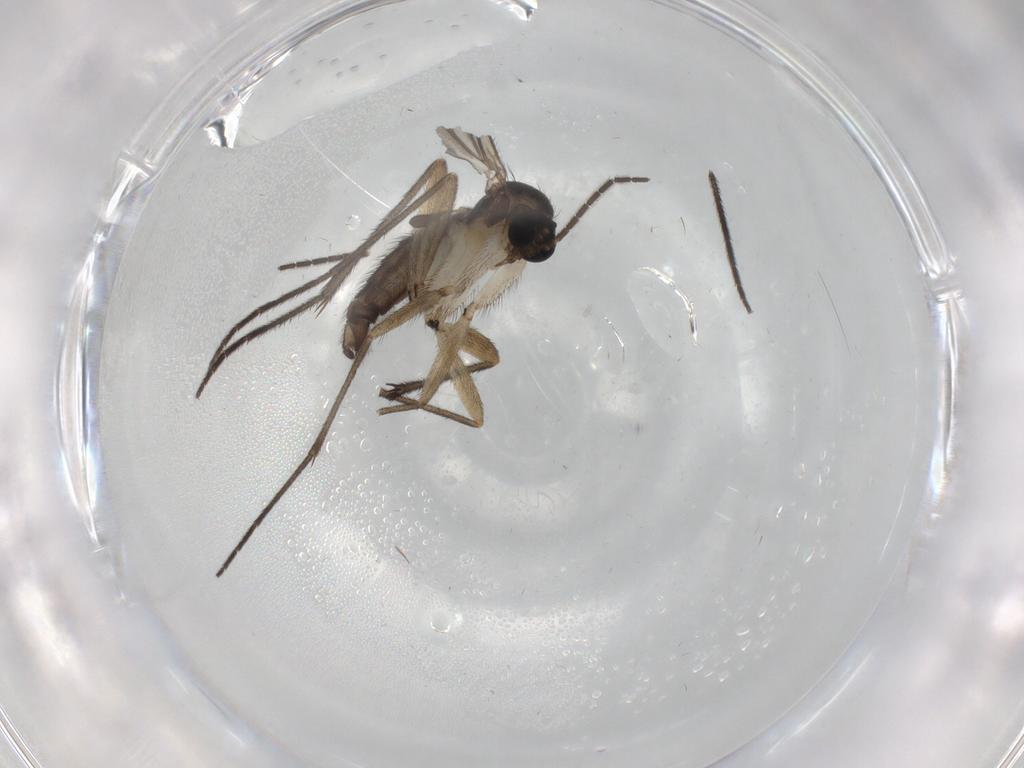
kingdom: Animalia
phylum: Arthropoda
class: Insecta
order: Diptera
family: Sciaridae
